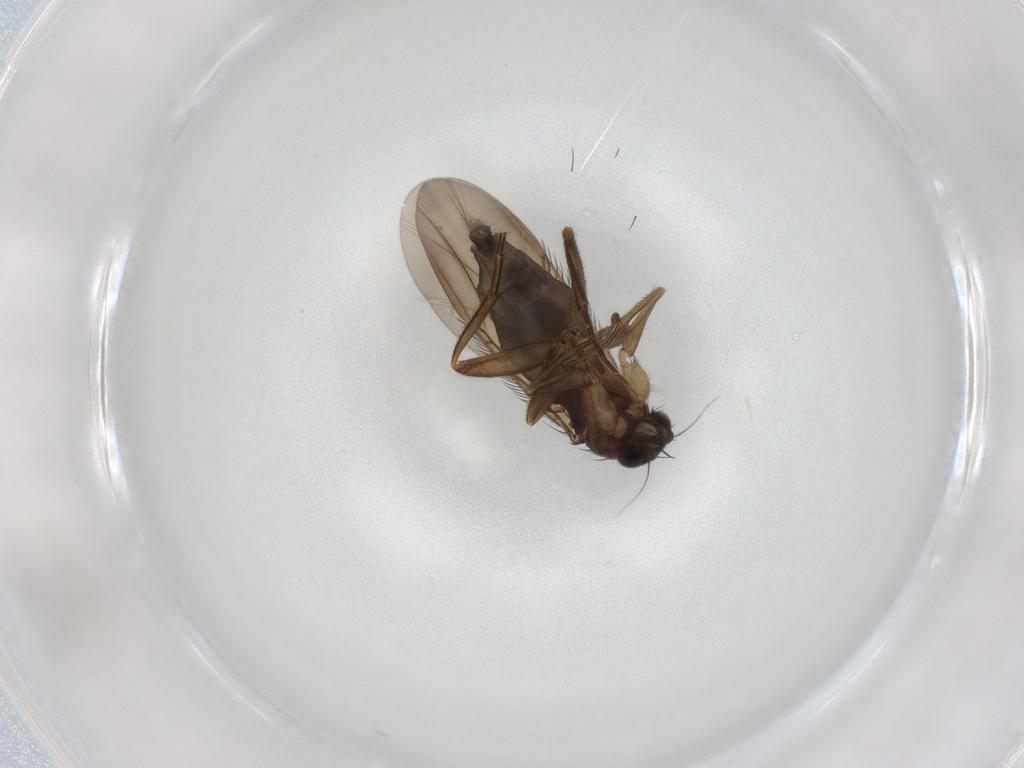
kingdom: Animalia
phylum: Arthropoda
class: Insecta
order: Diptera
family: Phoridae
